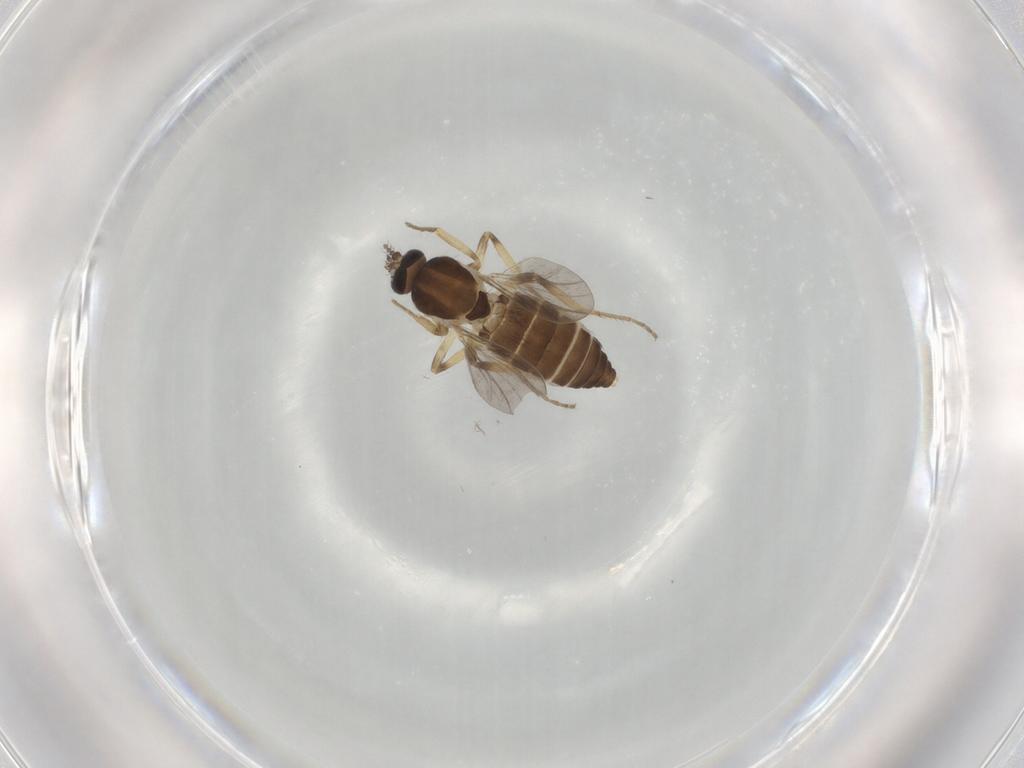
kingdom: Animalia
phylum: Arthropoda
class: Insecta
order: Diptera
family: Ceratopogonidae
